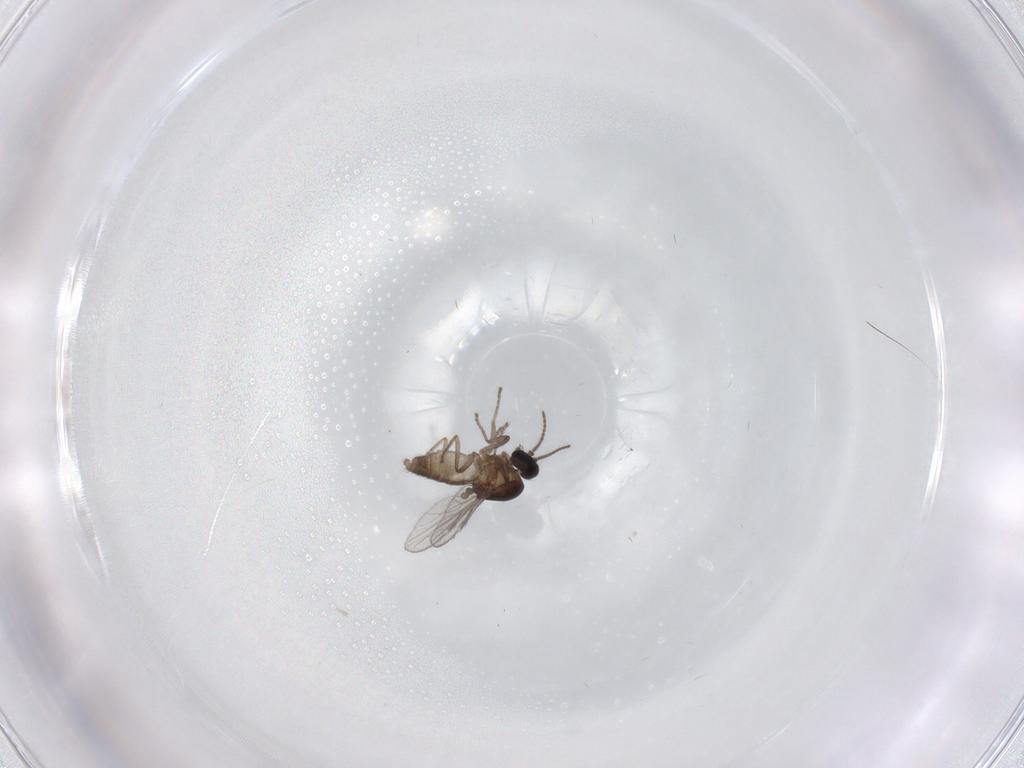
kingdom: Animalia
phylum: Arthropoda
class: Insecta
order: Diptera
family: Ceratopogonidae
